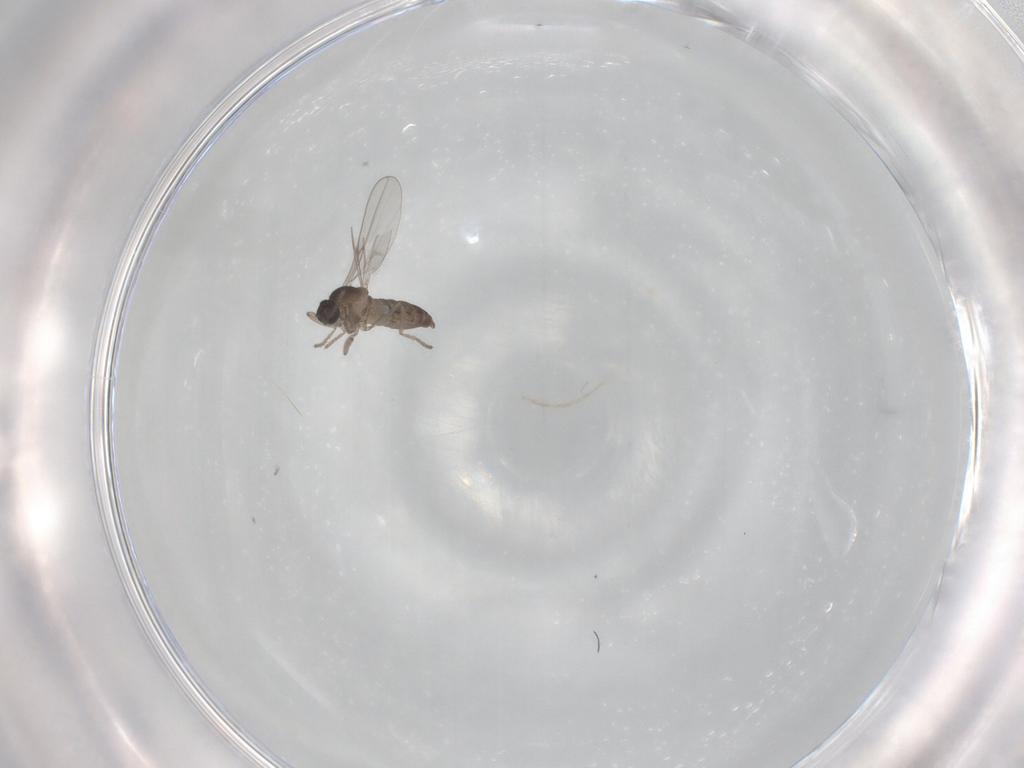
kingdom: Animalia
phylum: Arthropoda
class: Insecta
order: Diptera
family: Cecidomyiidae
